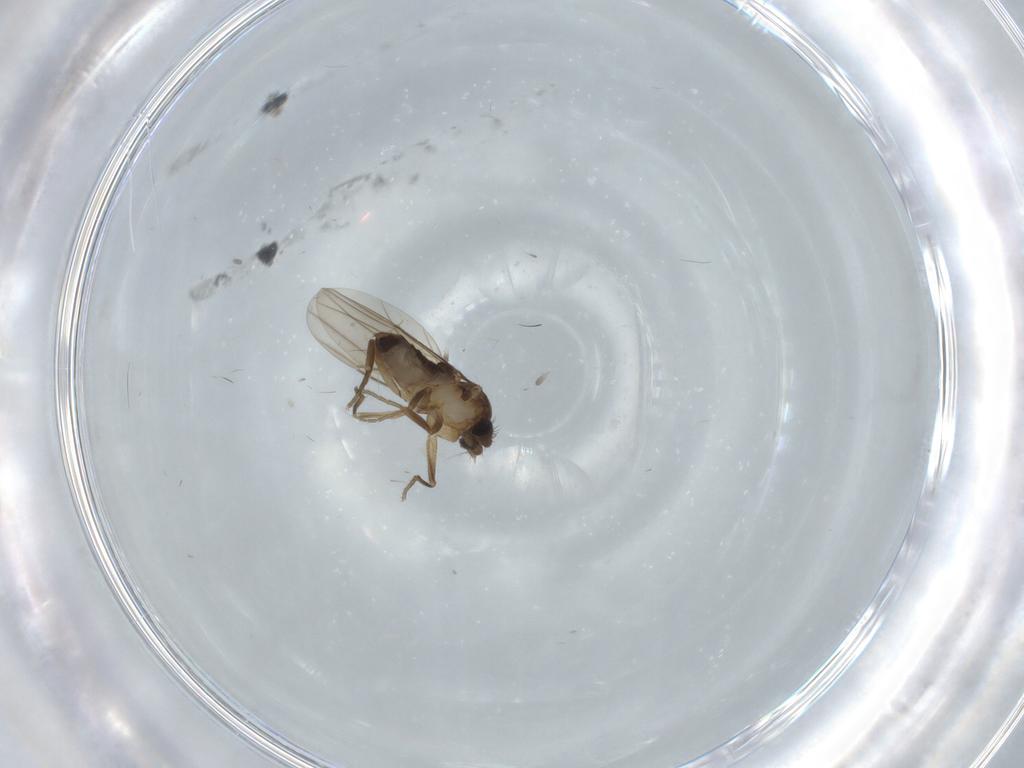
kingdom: Animalia
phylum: Arthropoda
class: Insecta
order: Diptera
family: Phoridae
